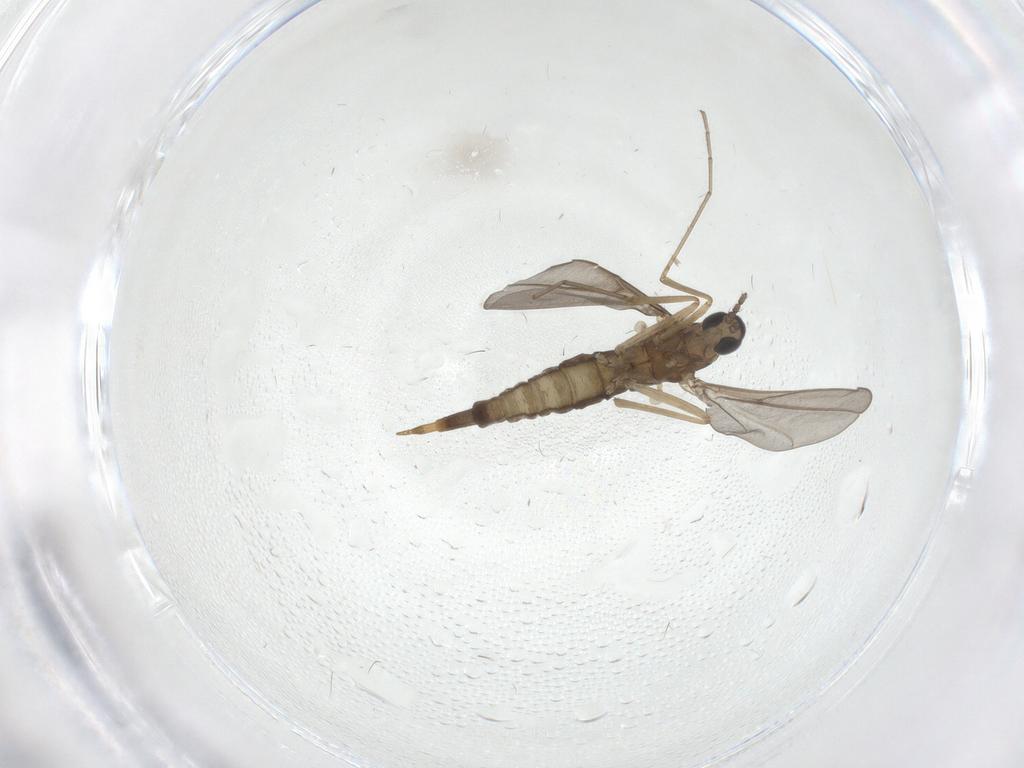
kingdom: Animalia
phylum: Arthropoda
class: Insecta
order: Diptera
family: Cecidomyiidae
